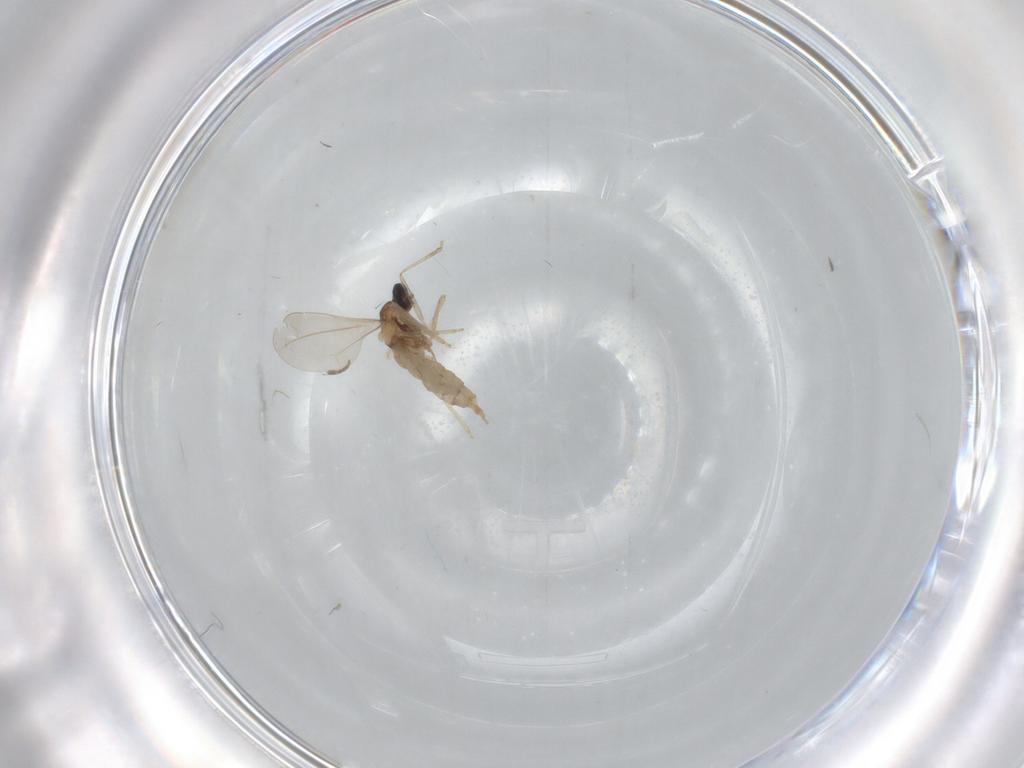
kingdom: Animalia
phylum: Arthropoda
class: Insecta
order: Diptera
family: Cecidomyiidae
